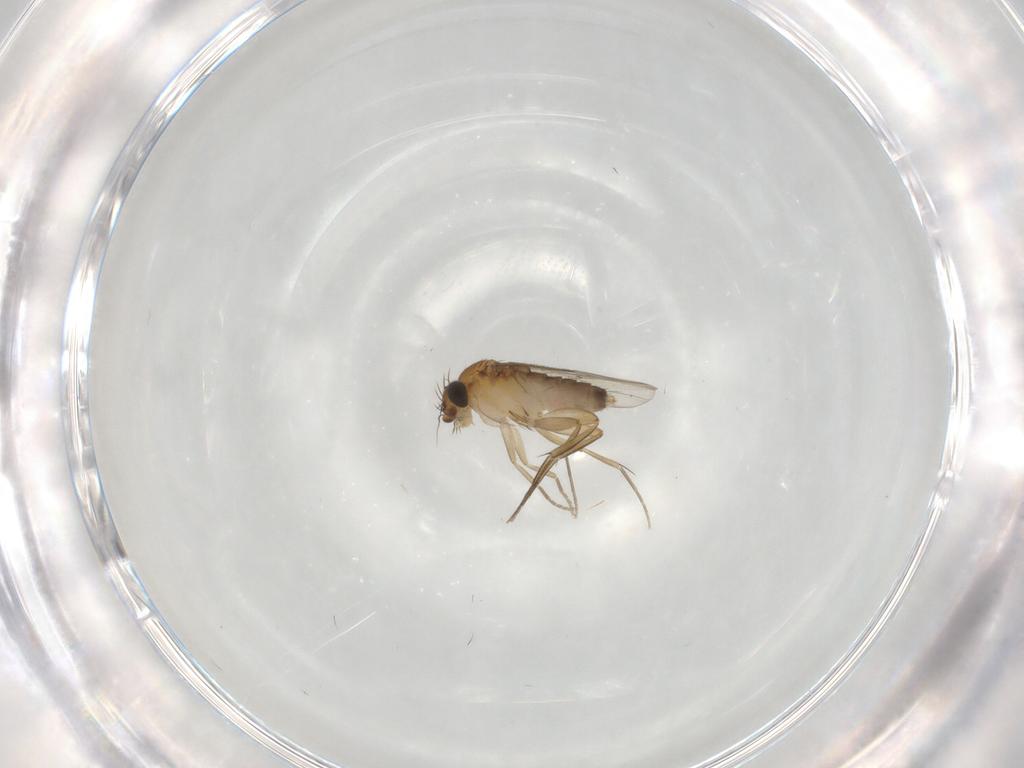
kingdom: Animalia
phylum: Arthropoda
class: Insecta
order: Diptera
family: Phoridae
